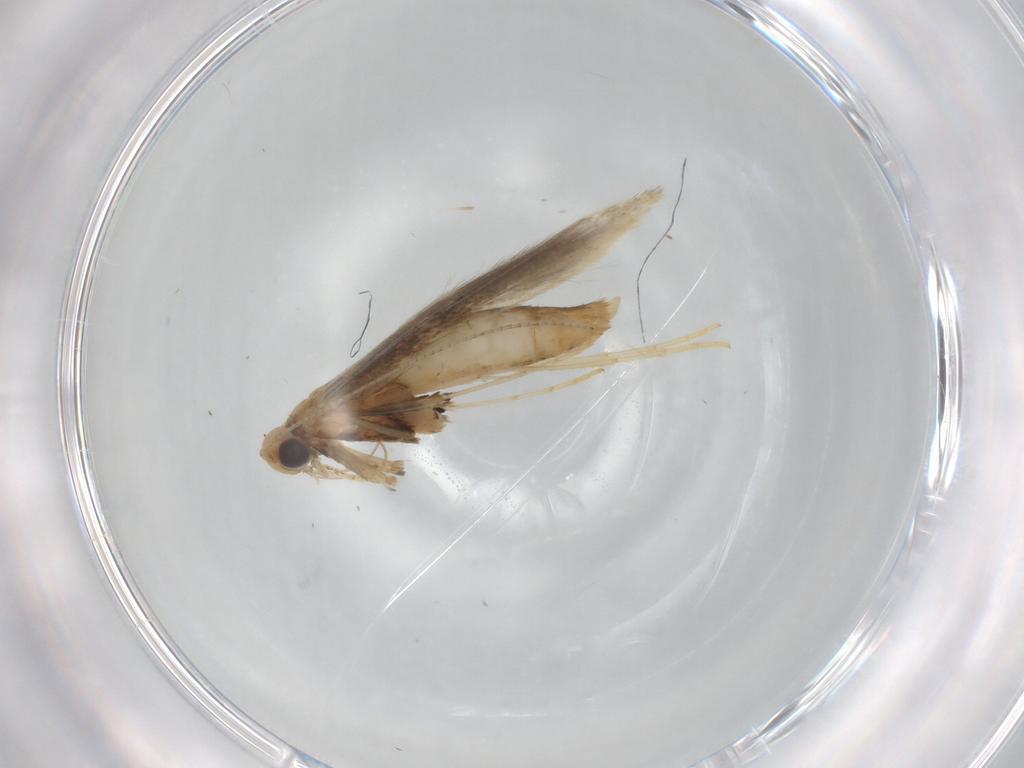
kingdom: Animalia
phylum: Arthropoda
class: Insecta
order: Lepidoptera
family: Gracillariidae
